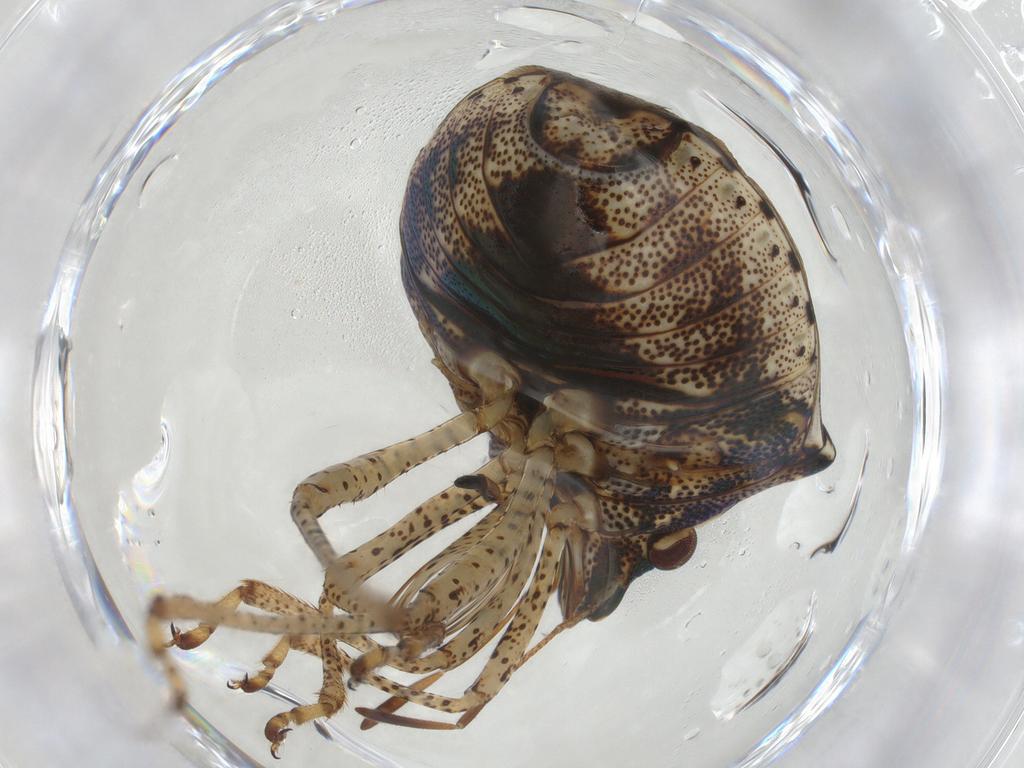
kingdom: Animalia
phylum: Arthropoda
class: Insecta
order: Hemiptera
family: Pentatomidae
